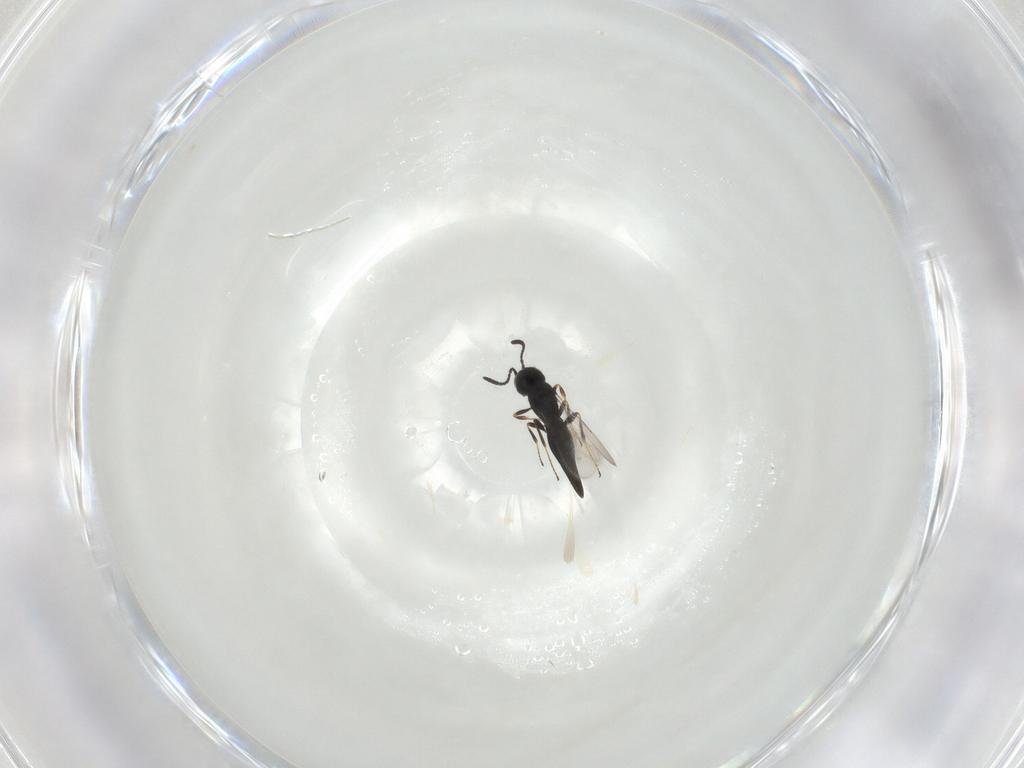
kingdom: Animalia
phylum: Arthropoda
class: Insecta
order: Hymenoptera
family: Scelionidae
